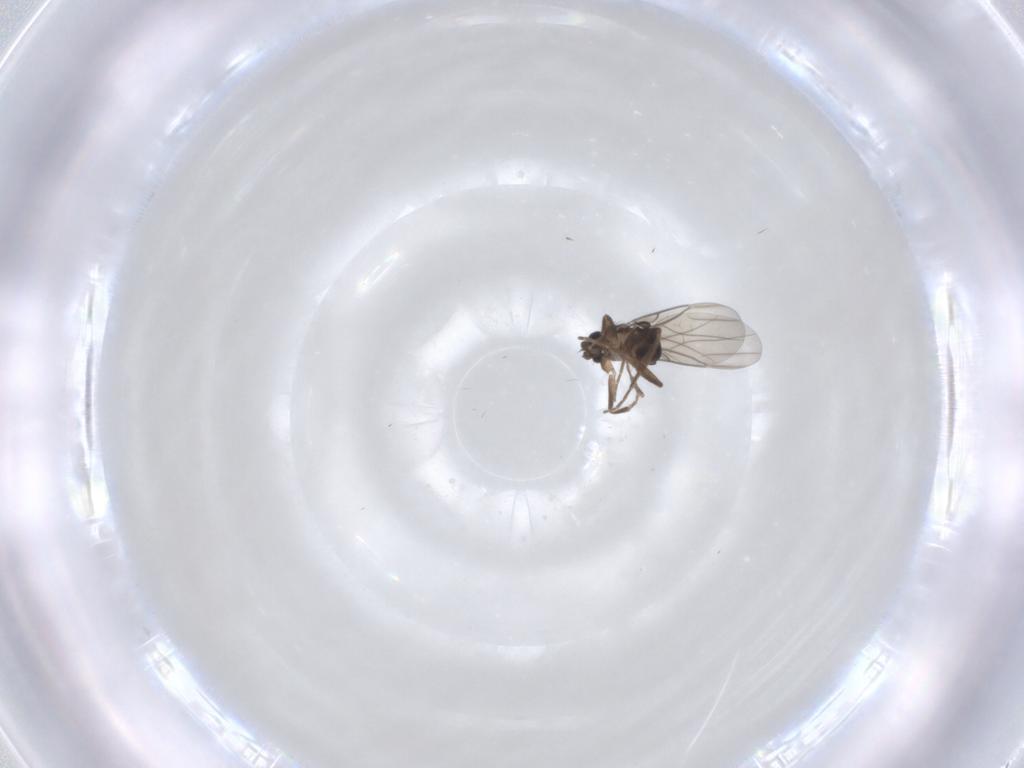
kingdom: Animalia
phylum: Arthropoda
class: Insecta
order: Diptera
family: Phoridae
